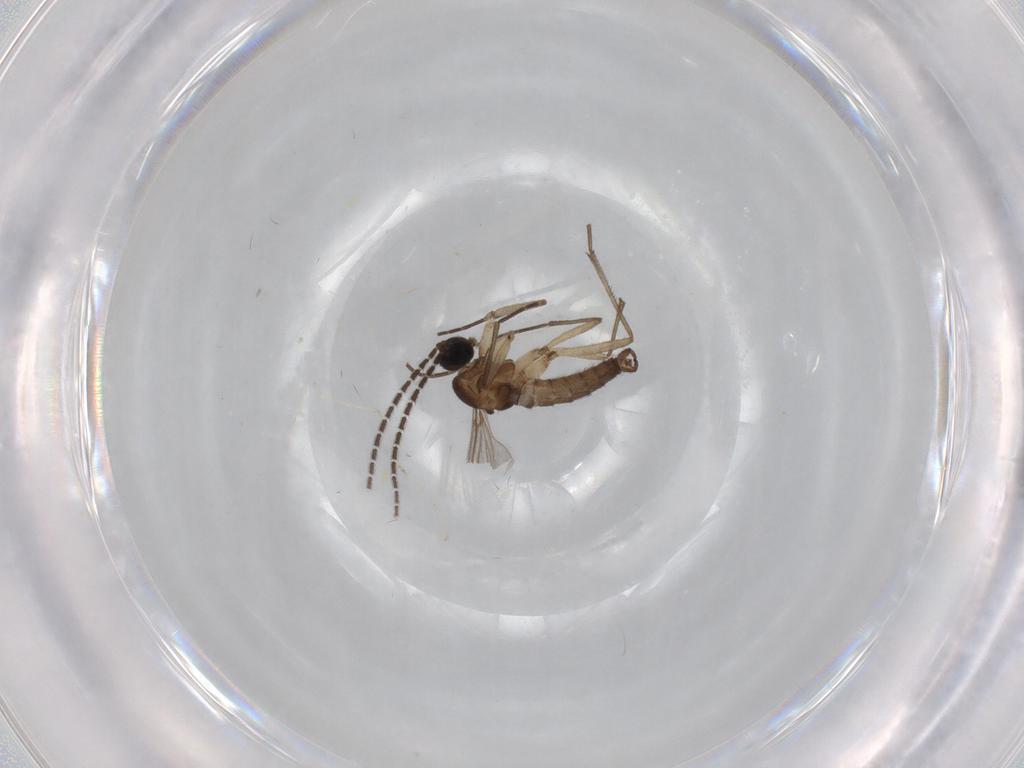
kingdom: Animalia
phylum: Arthropoda
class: Insecta
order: Diptera
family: Sciaridae
